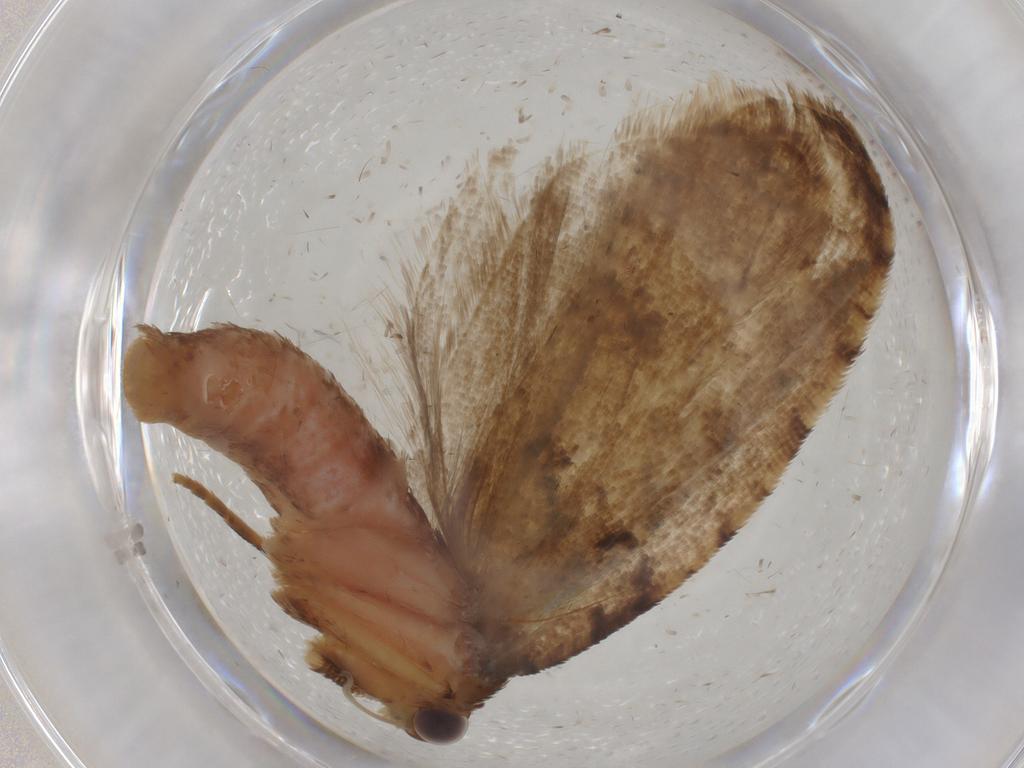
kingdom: Animalia
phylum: Arthropoda
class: Insecta
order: Lepidoptera
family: Tortricidae
